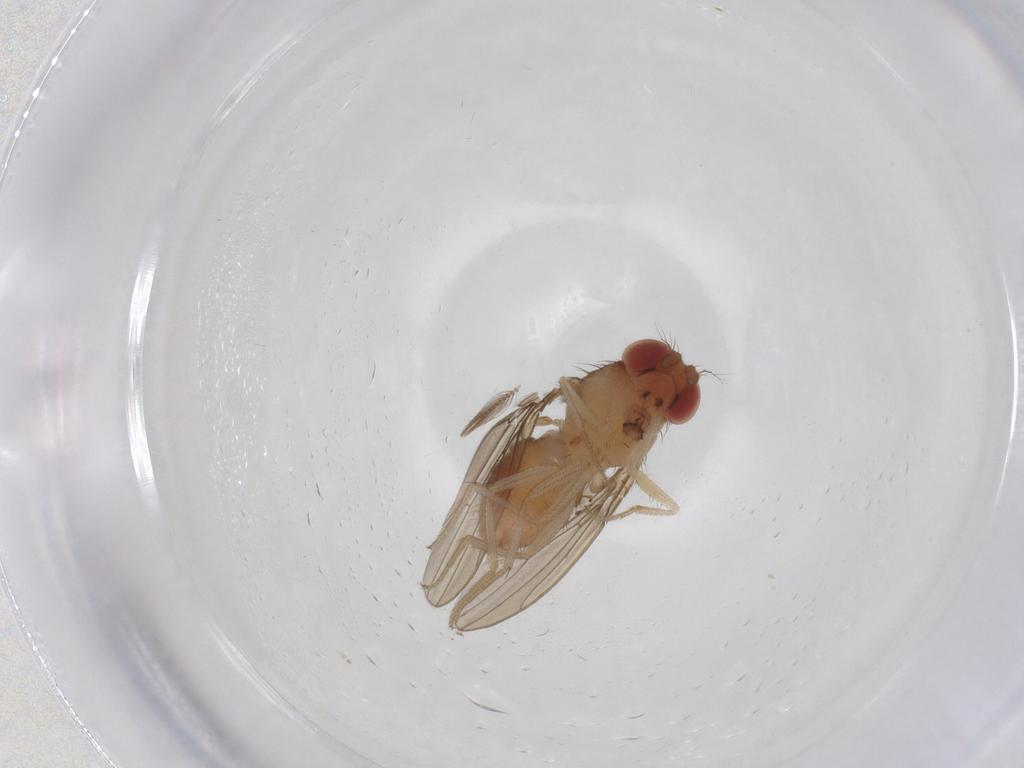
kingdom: Animalia
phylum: Arthropoda
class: Insecta
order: Diptera
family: Drosophilidae
